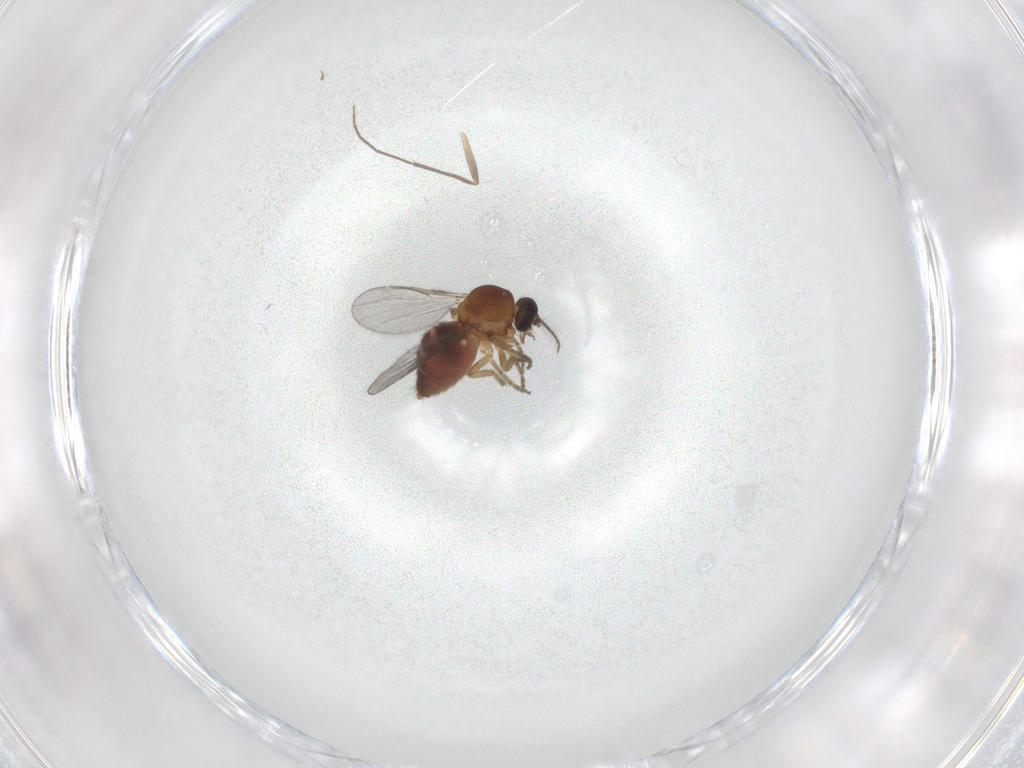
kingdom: Animalia
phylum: Arthropoda
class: Insecta
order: Diptera
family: Ceratopogonidae
